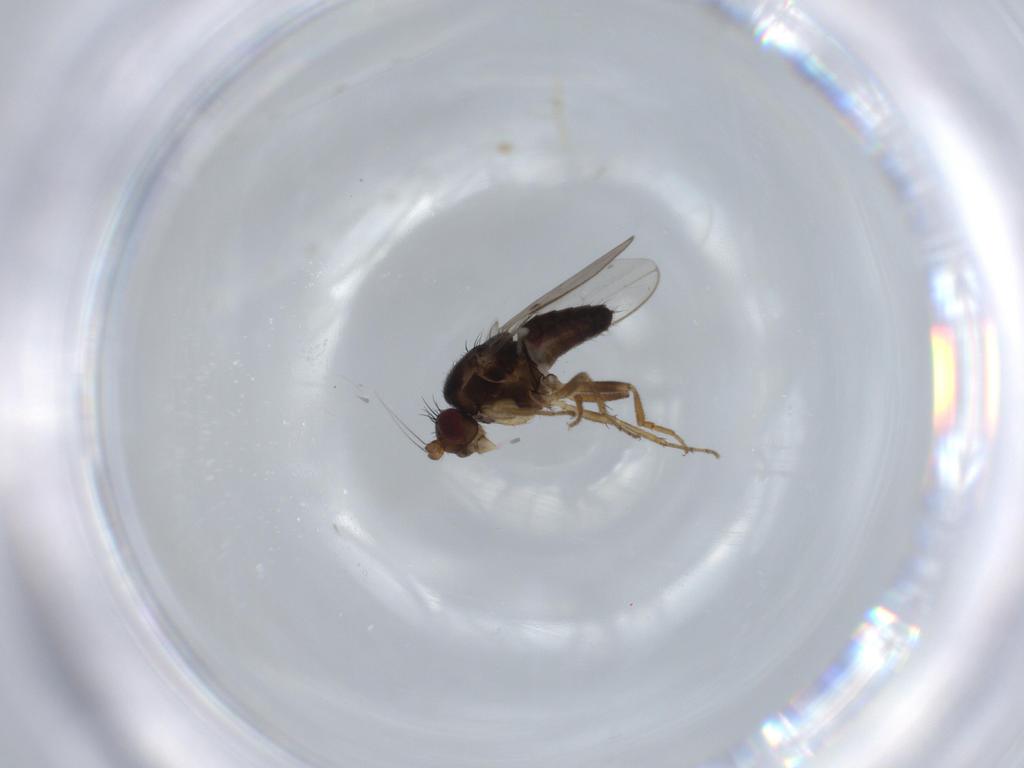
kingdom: Animalia
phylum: Arthropoda
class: Insecta
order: Diptera
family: Sphaeroceridae
